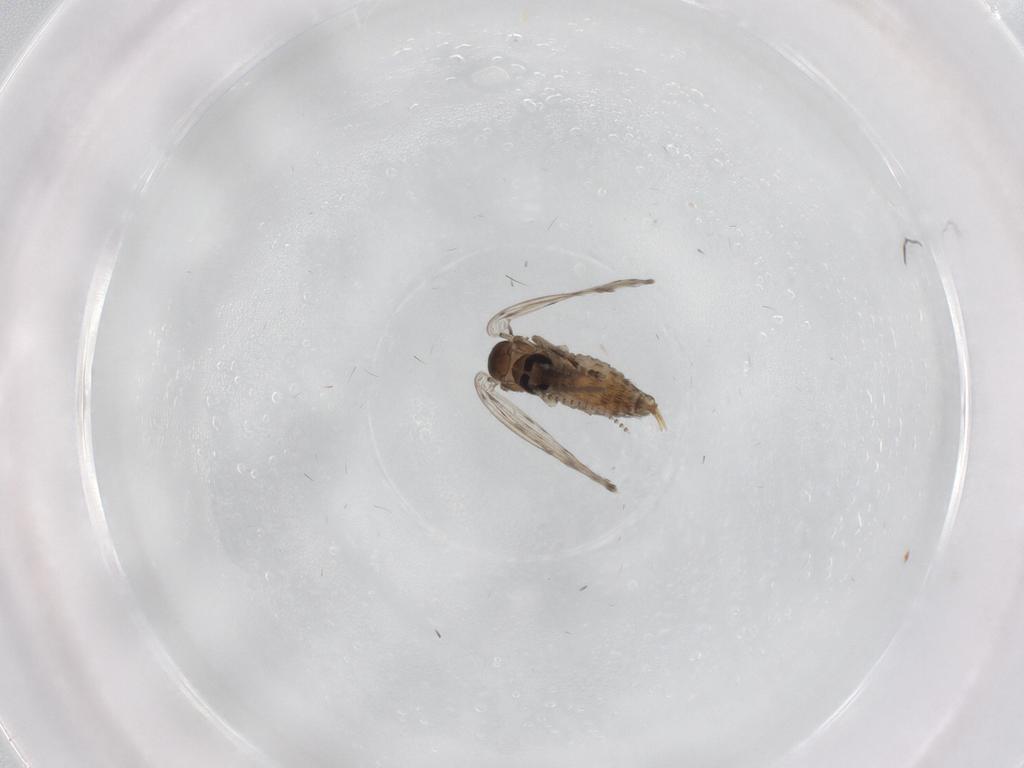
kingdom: Animalia
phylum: Arthropoda
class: Insecta
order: Diptera
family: Psychodidae
